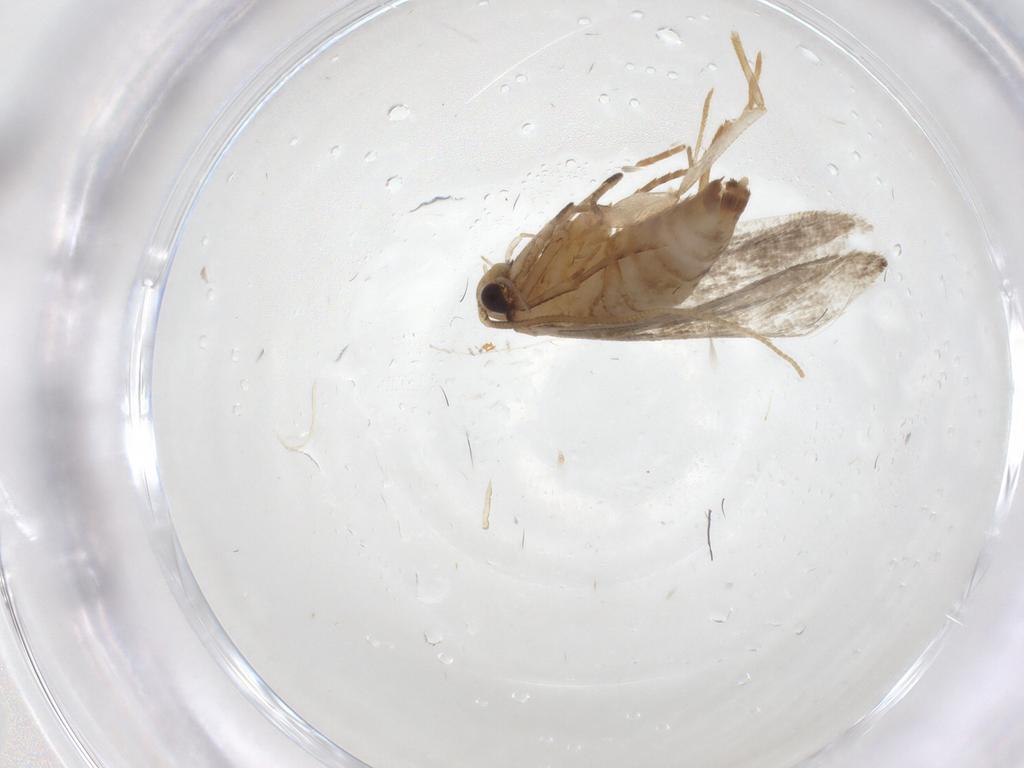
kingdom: Animalia
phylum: Arthropoda
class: Insecta
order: Lepidoptera
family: Tineidae
